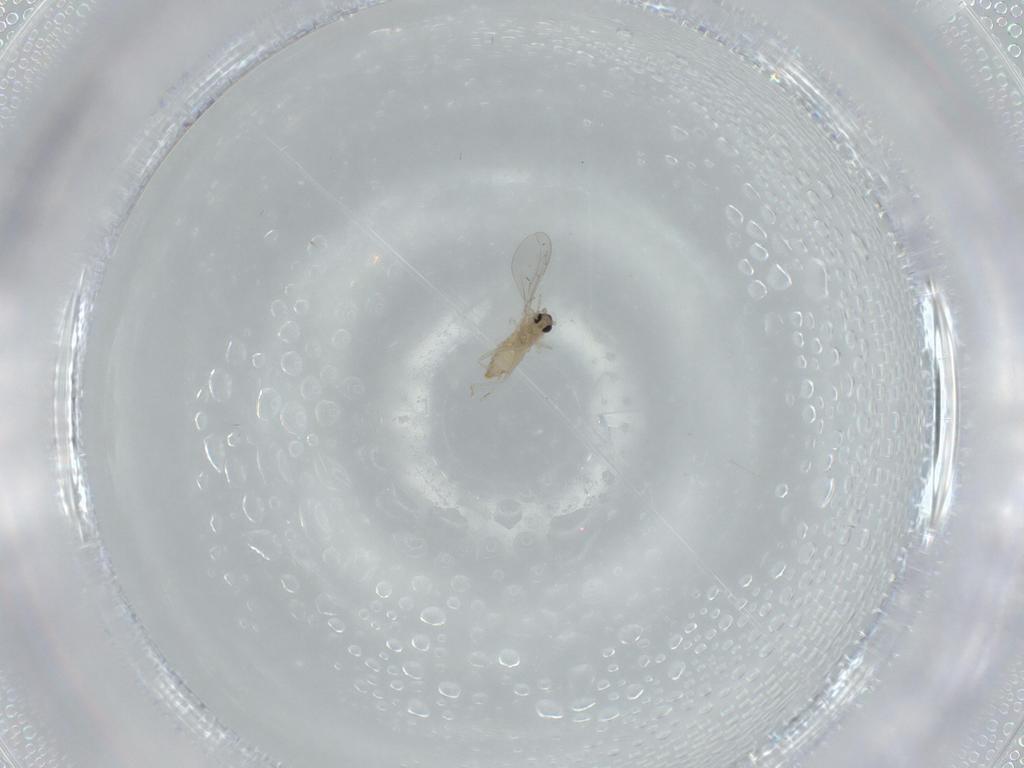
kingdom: Animalia
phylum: Arthropoda
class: Insecta
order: Diptera
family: Cecidomyiidae
